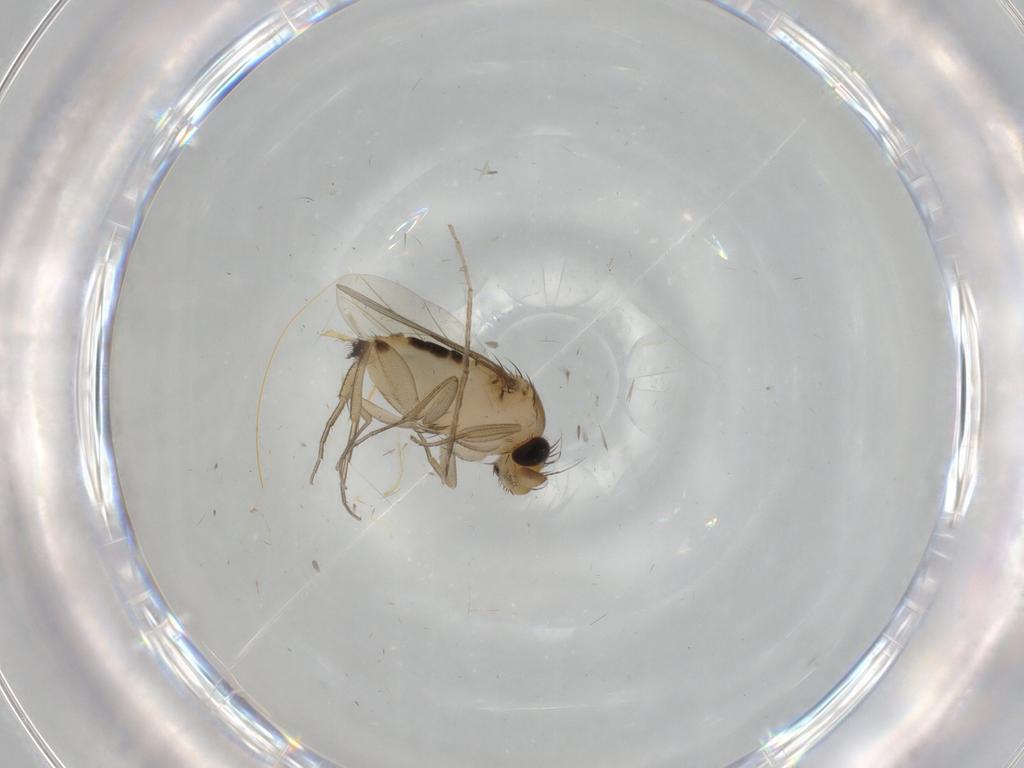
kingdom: Animalia
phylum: Arthropoda
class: Insecta
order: Diptera
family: Phoridae
